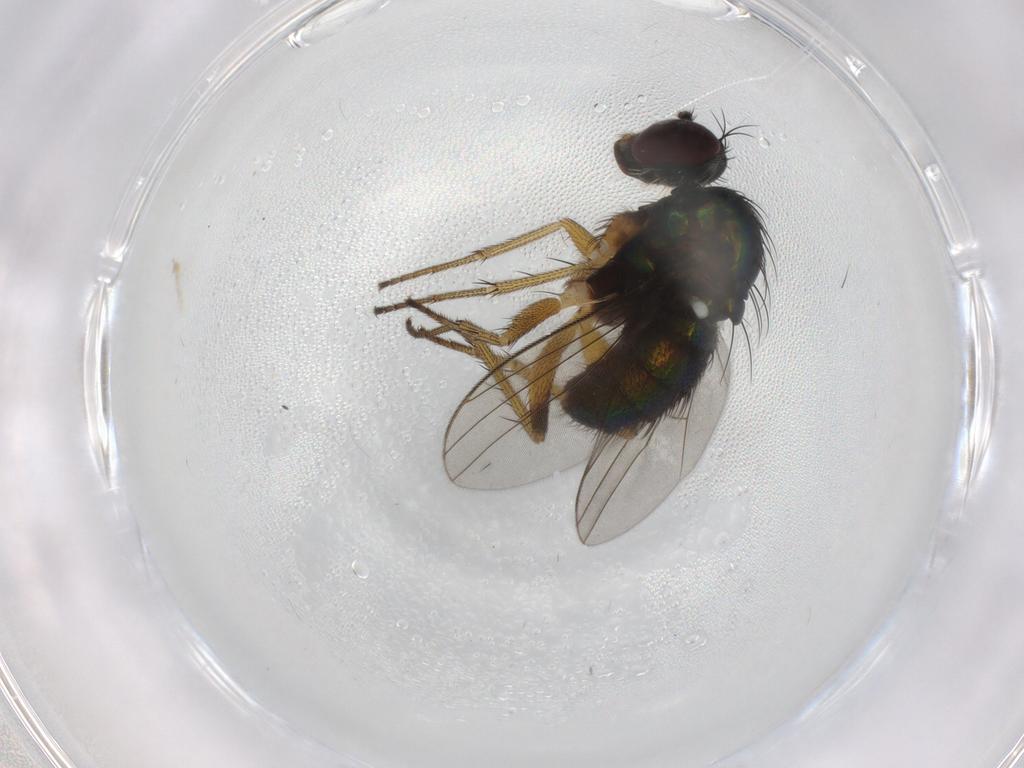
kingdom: Animalia
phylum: Arthropoda
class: Insecta
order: Diptera
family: Dolichopodidae
